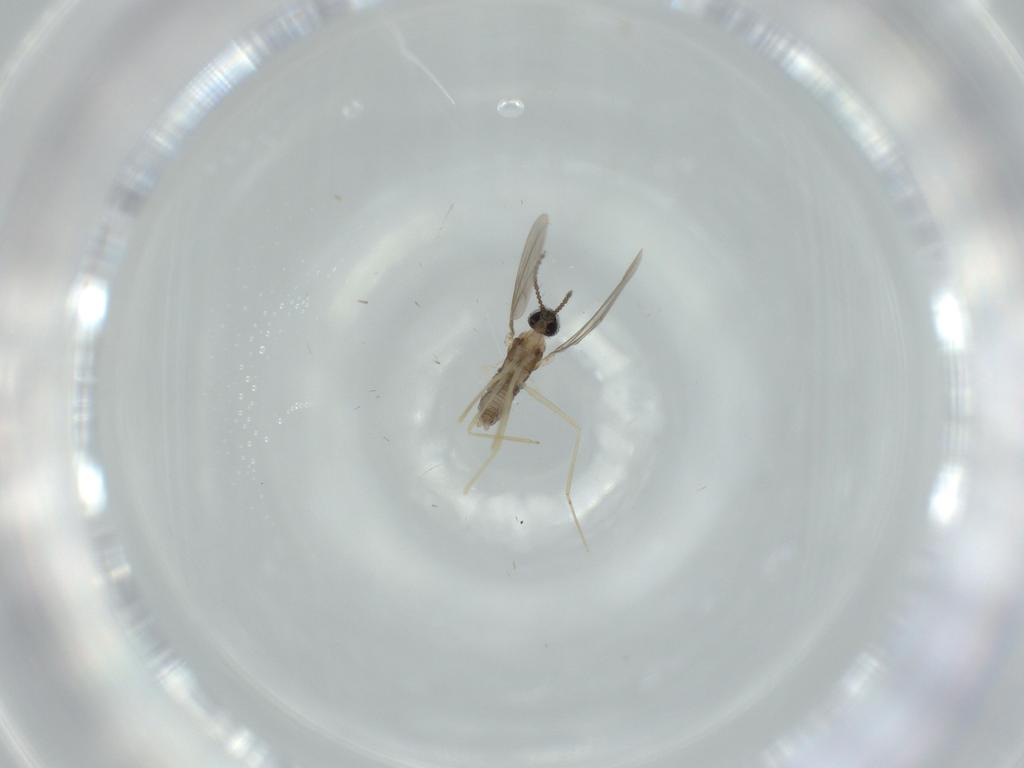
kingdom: Animalia
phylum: Arthropoda
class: Insecta
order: Diptera
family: Cecidomyiidae
